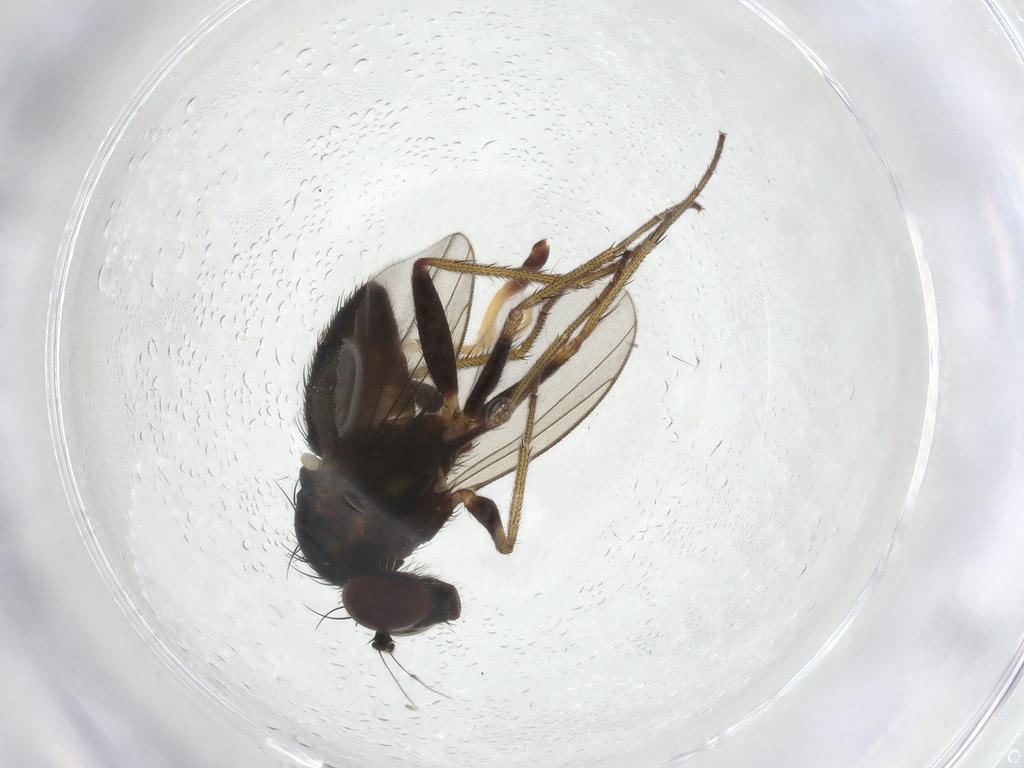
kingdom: Animalia
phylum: Arthropoda
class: Insecta
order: Diptera
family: Dolichopodidae
